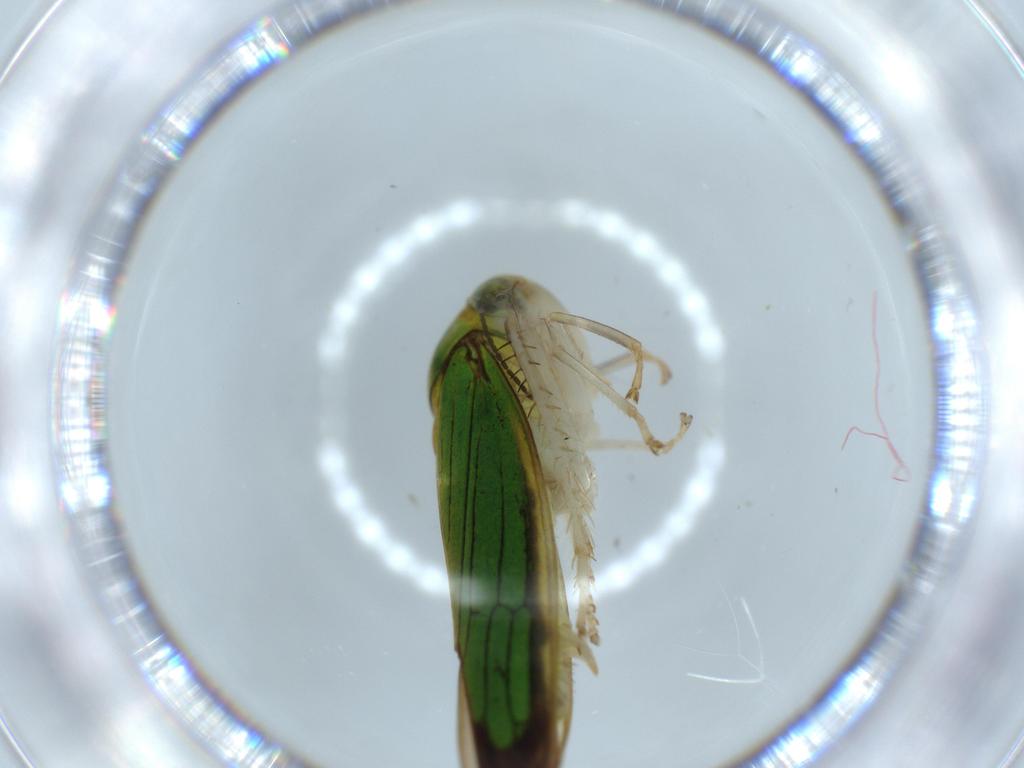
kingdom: Animalia
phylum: Arthropoda
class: Insecta
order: Hemiptera
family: Cicadellidae
